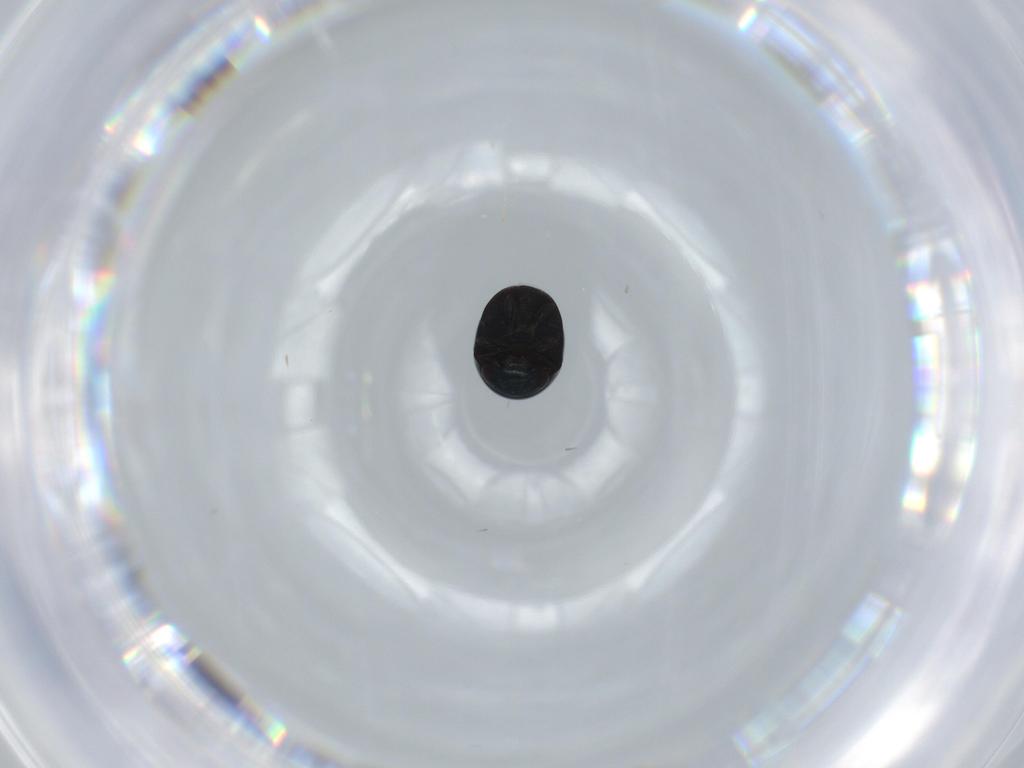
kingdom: Animalia
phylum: Arthropoda
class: Insecta
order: Coleoptera
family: Cybocephalidae
